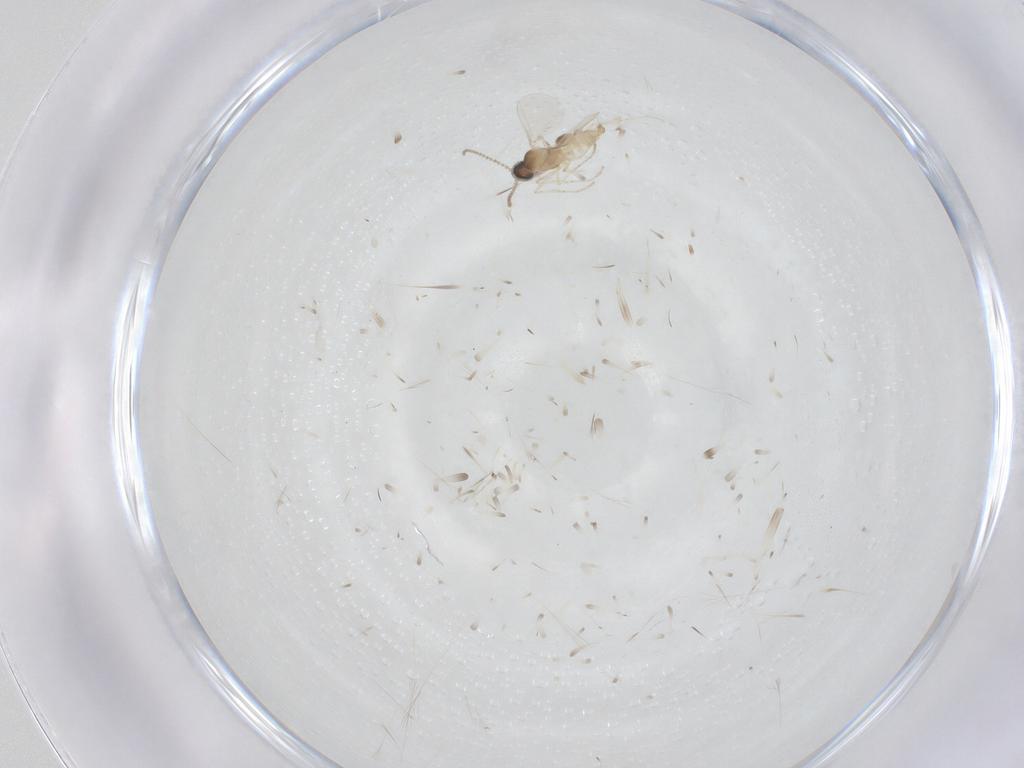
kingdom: Animalia
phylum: Arthropoda
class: Insecta
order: Diptera
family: Cecidomyiidae
